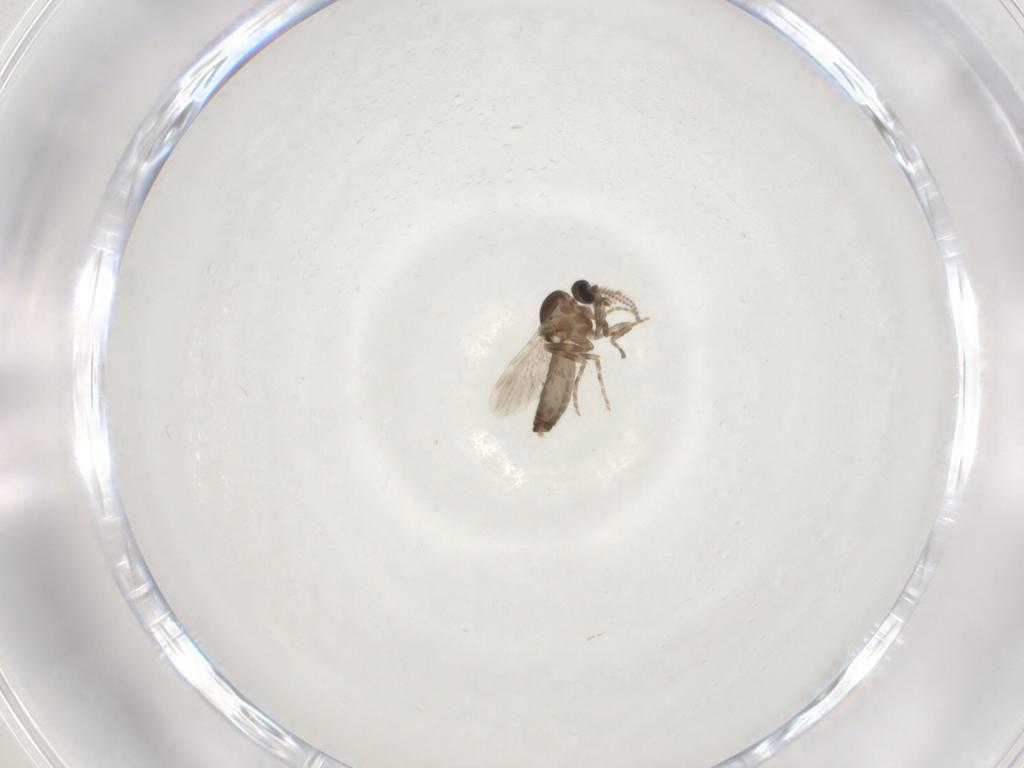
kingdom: Animalia
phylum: Arthropoda
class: Insecta
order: Diptera
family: Ceratopogonidae
